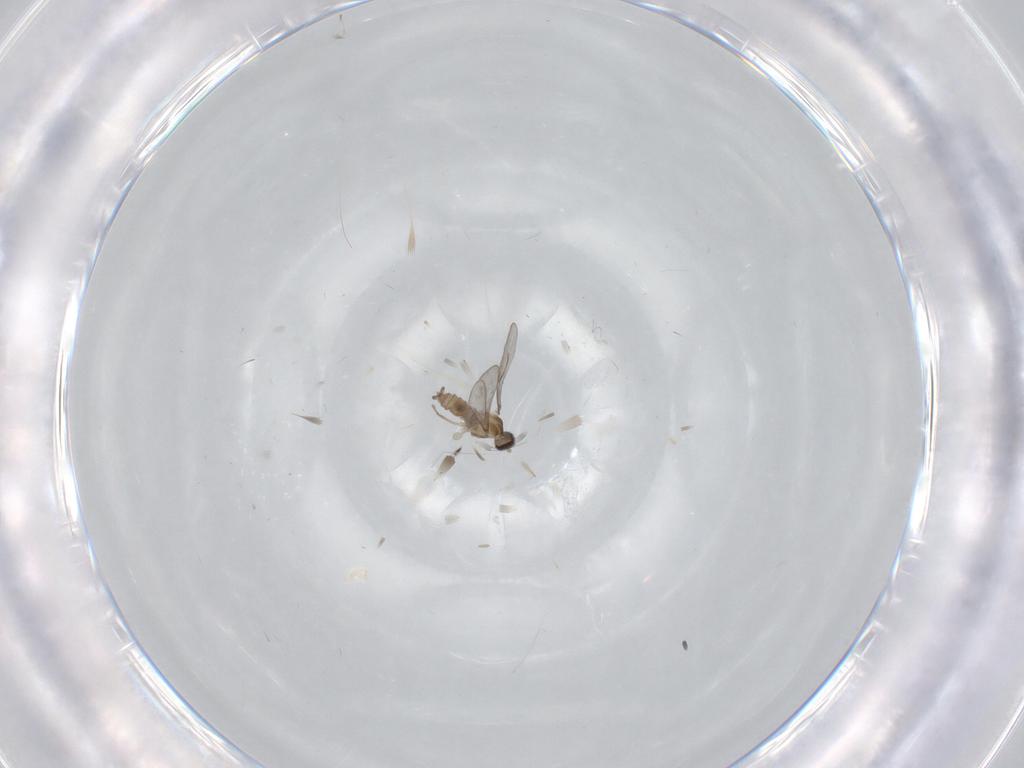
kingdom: Animalia
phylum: Arthropoda
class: Insecta
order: Diptera
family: Cecidomyiidae
